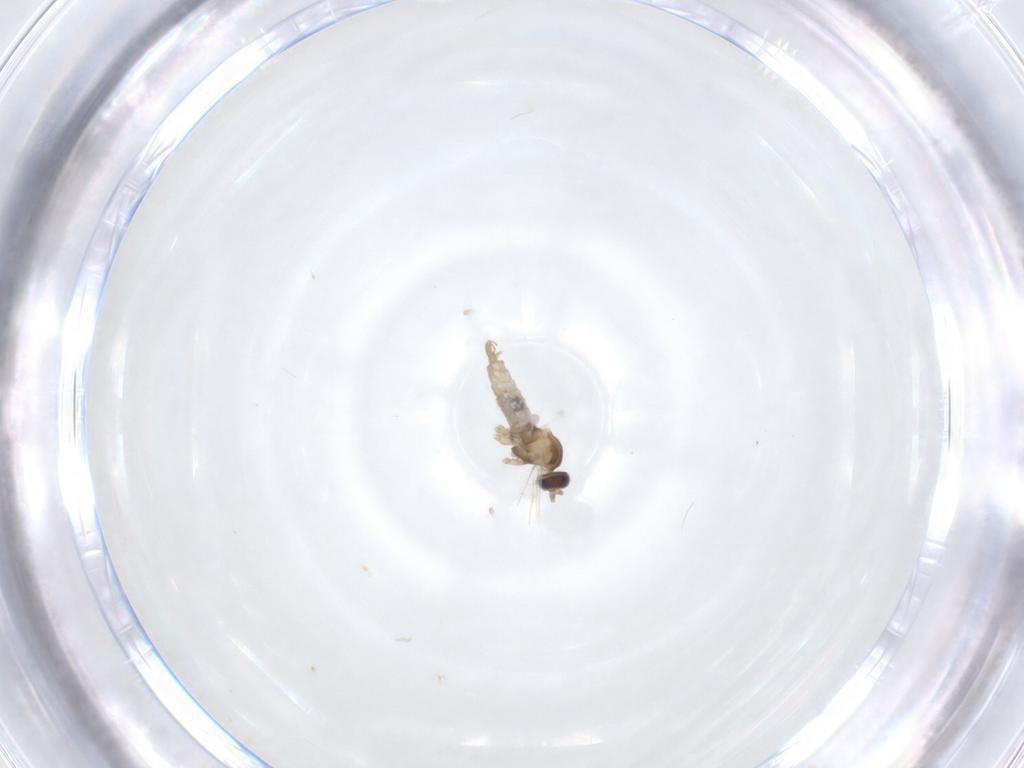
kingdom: Animalia
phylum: Arthropoda
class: Insecta
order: Diptera
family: Cecidomyiidae
